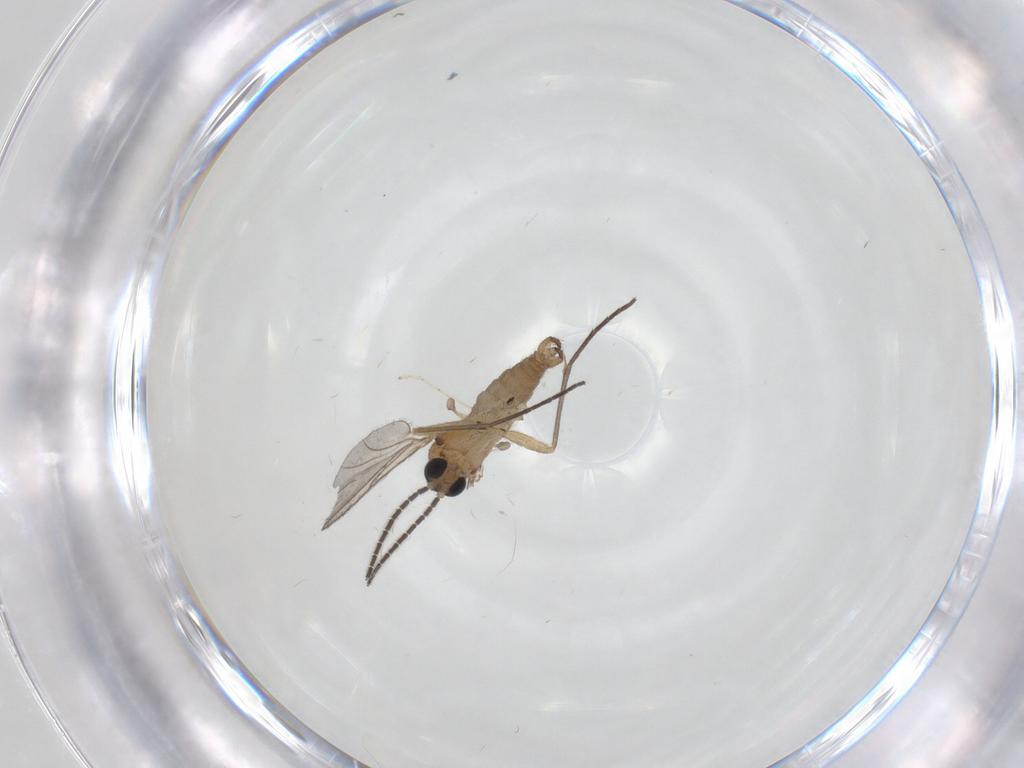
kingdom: Animalia
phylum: Arthropoda
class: Insecta
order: Diptera
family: Sciaridae
